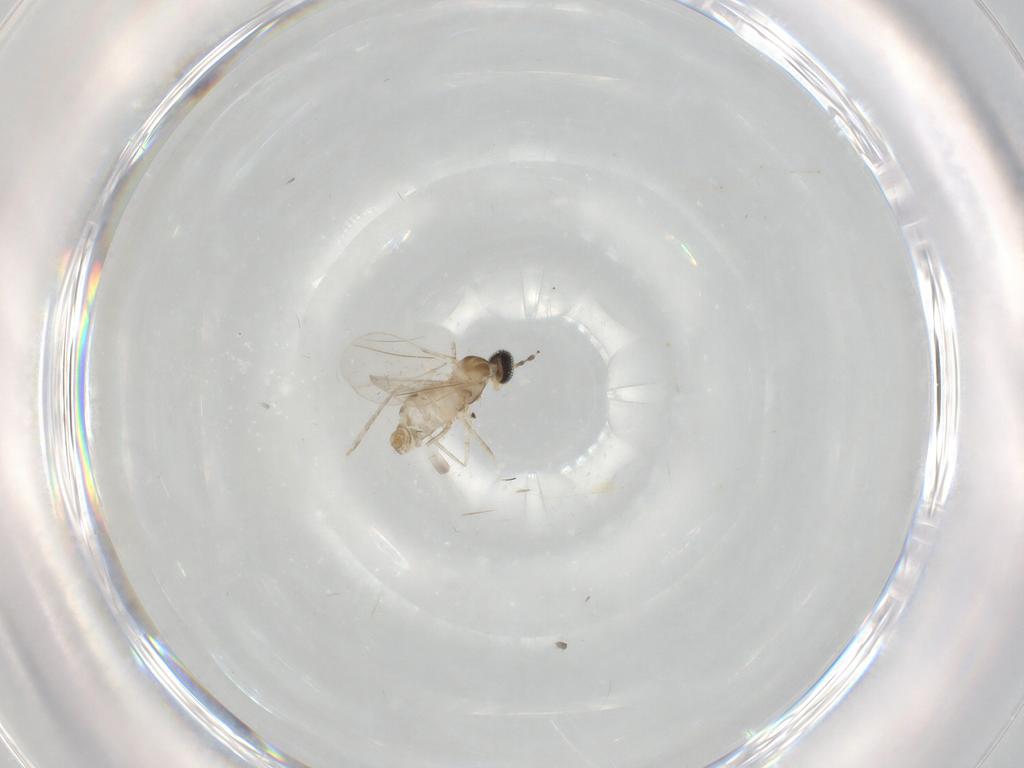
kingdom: Animalia
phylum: Arthropoda
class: Insecta
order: Diptera
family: Cecidomyiidae
